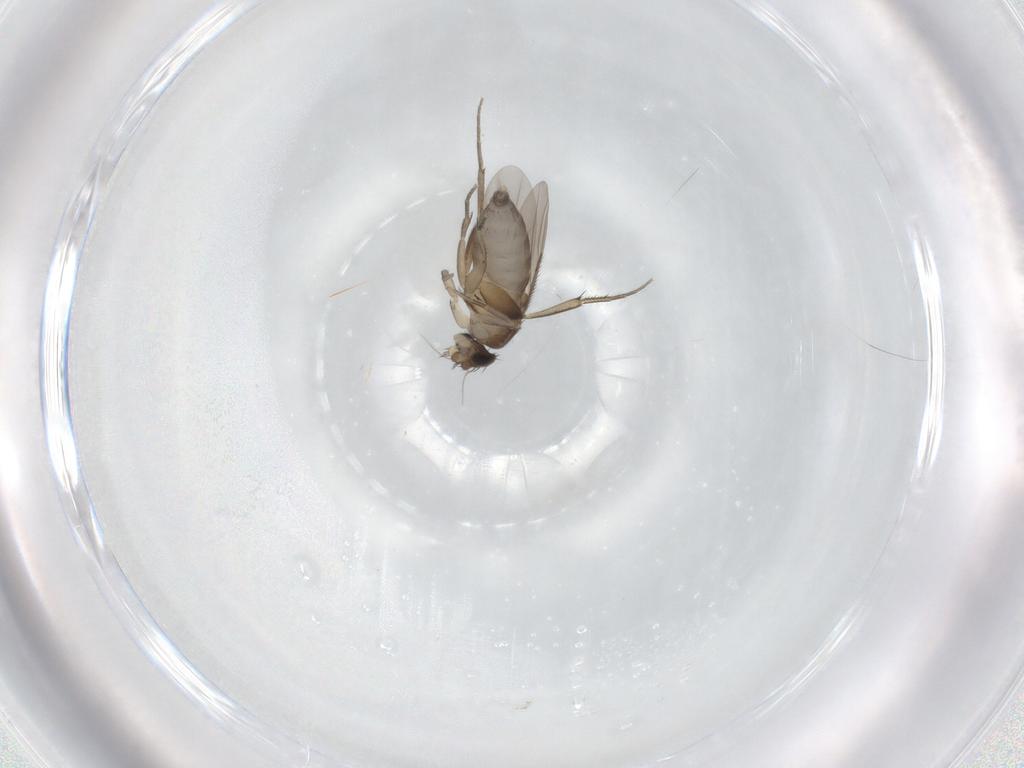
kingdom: Animalia
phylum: Arthropoda
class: Insecta
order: Diptera
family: Phoridae
